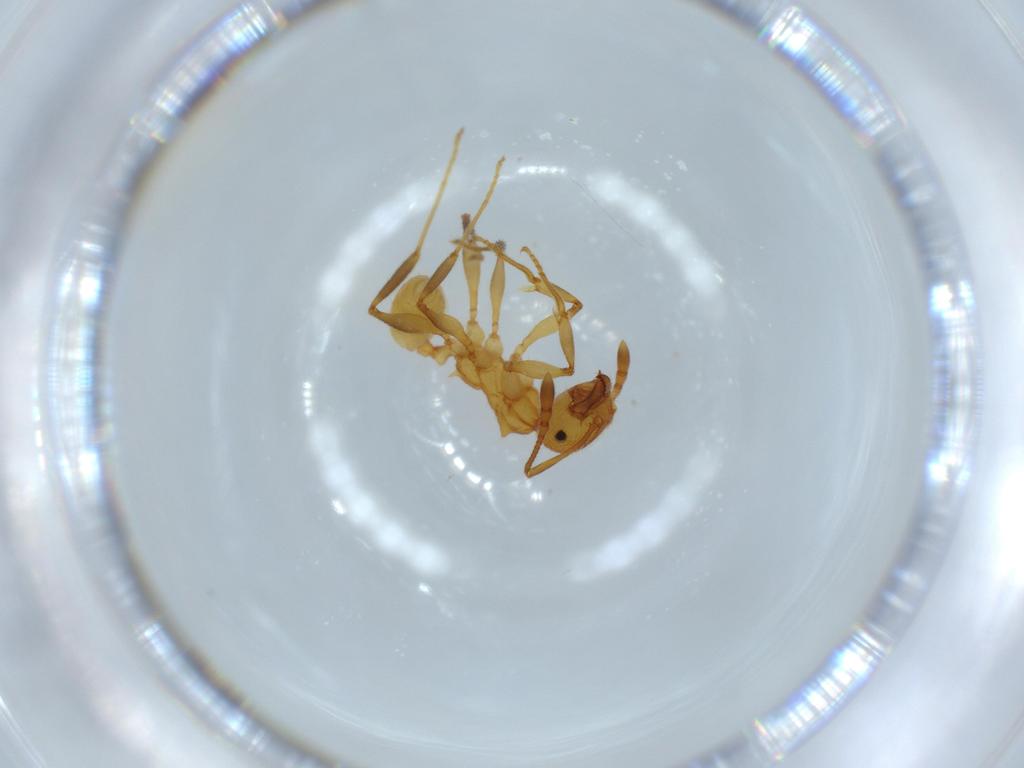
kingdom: Animalia
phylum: Arthropoda
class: Insecta
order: Hymenoptera
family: Formicidae
